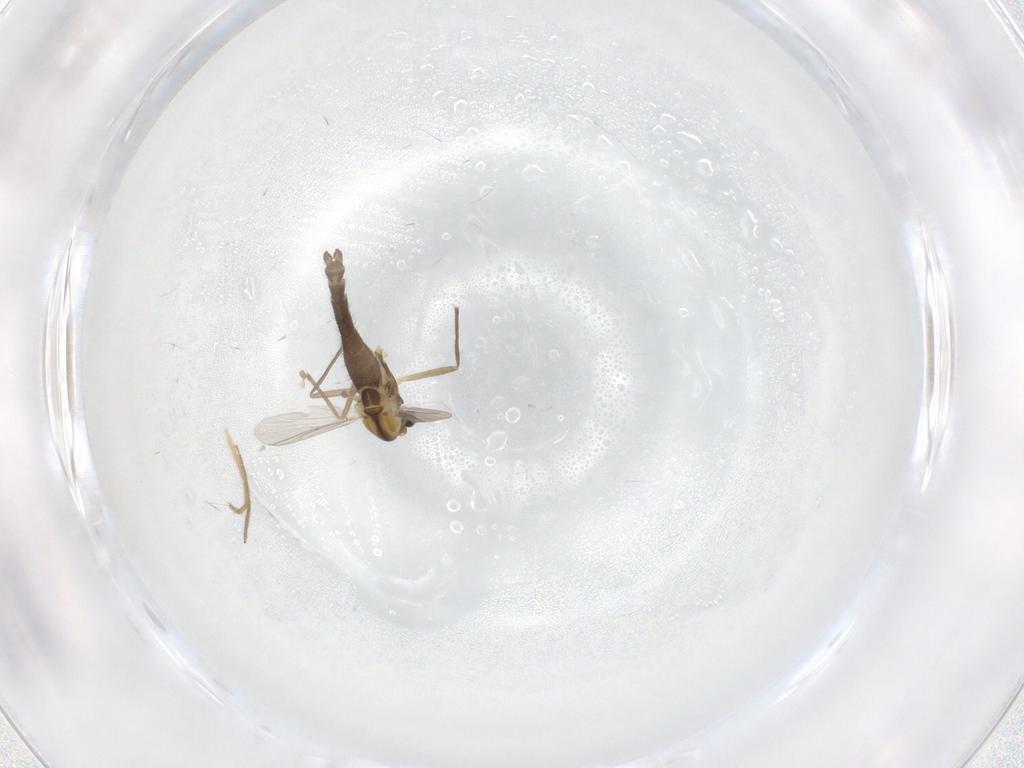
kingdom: Animalia
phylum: Arthropoda
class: Insecta
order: Diptera
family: Chironomidae
